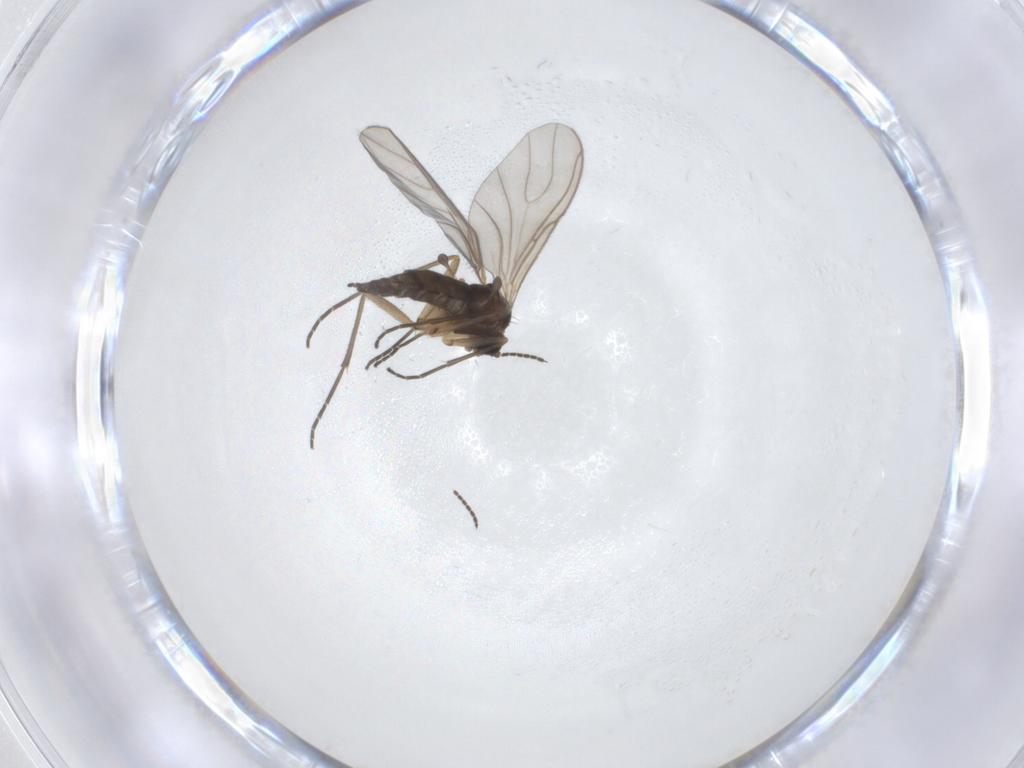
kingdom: Animalia
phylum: Arthropoda
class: Insecta
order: Diptera
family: Sciaridae
